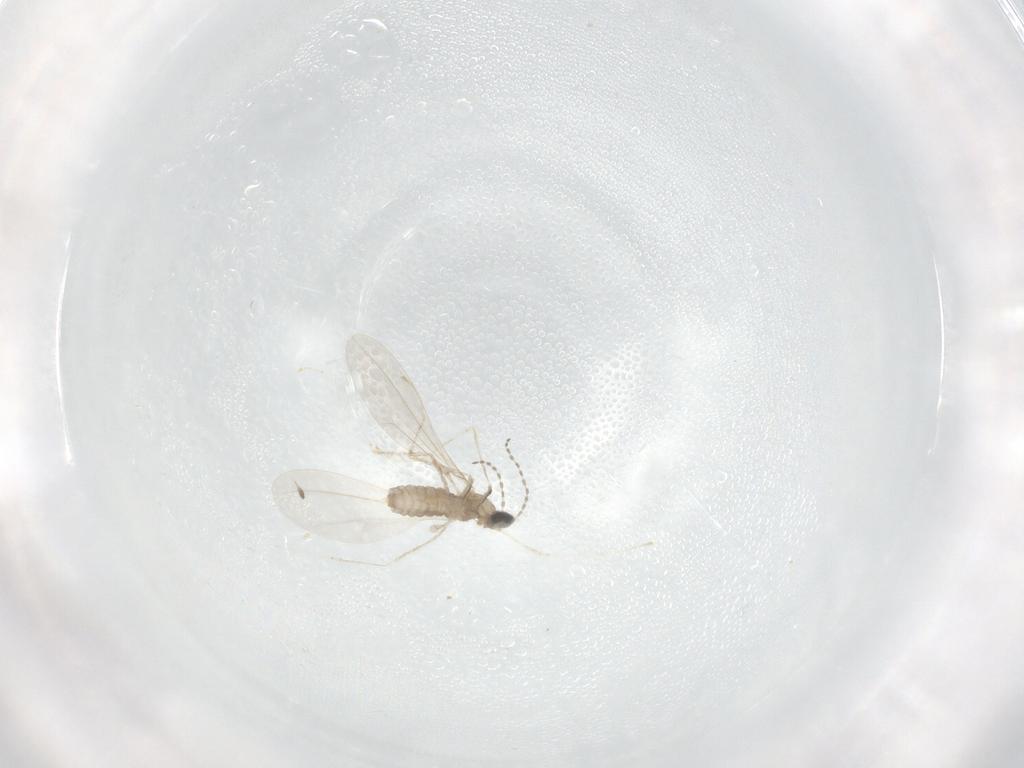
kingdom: Animalia
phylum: Arthropoda
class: Insecta
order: Diptera
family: Cecidomyiidae
